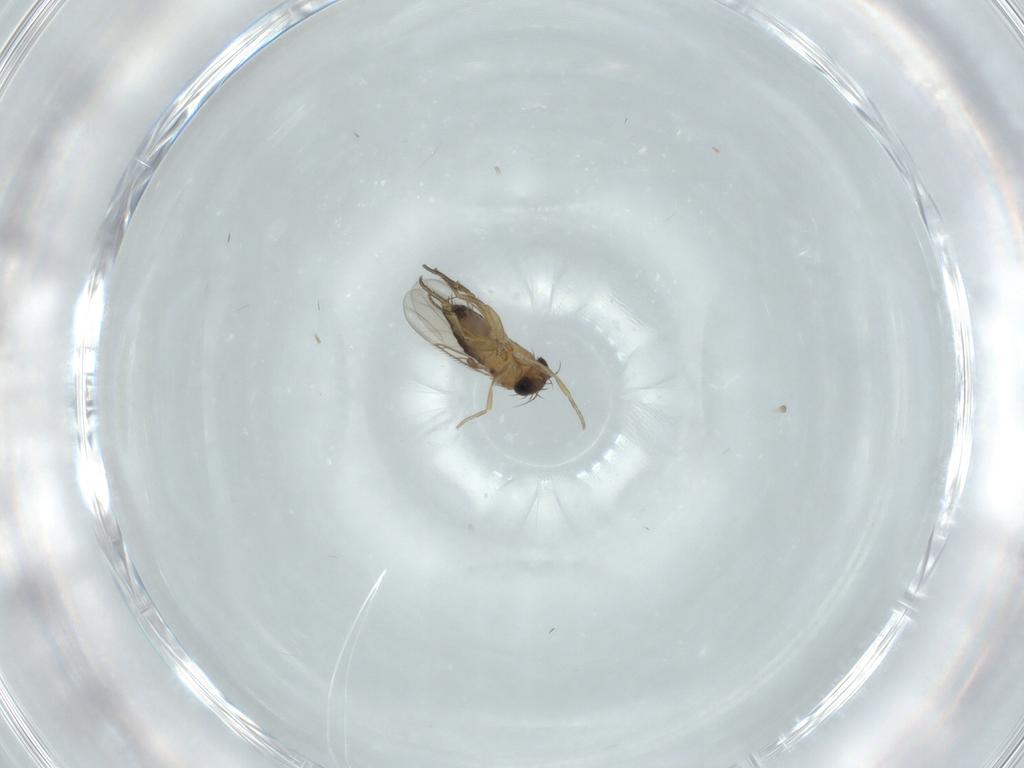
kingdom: Animalia
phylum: Arthropoda
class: Insecta
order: Diptera
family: Phoridae
